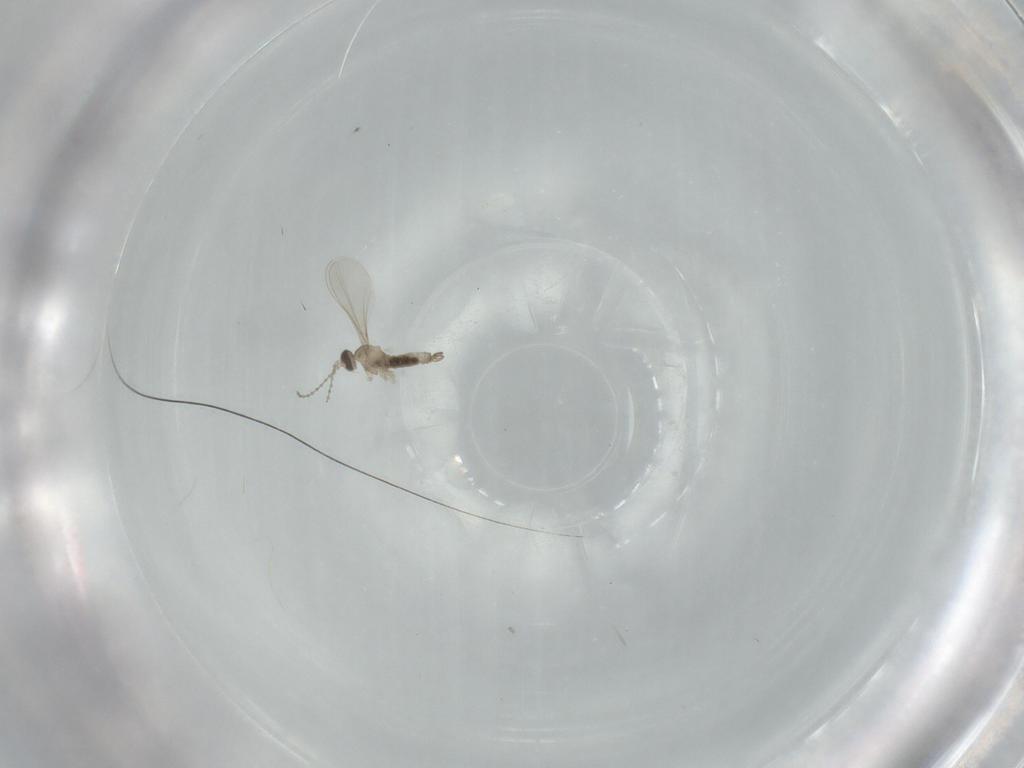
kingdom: Animalia
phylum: Arthropoda
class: Insecta
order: Diptera
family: Cecidomyiidae
